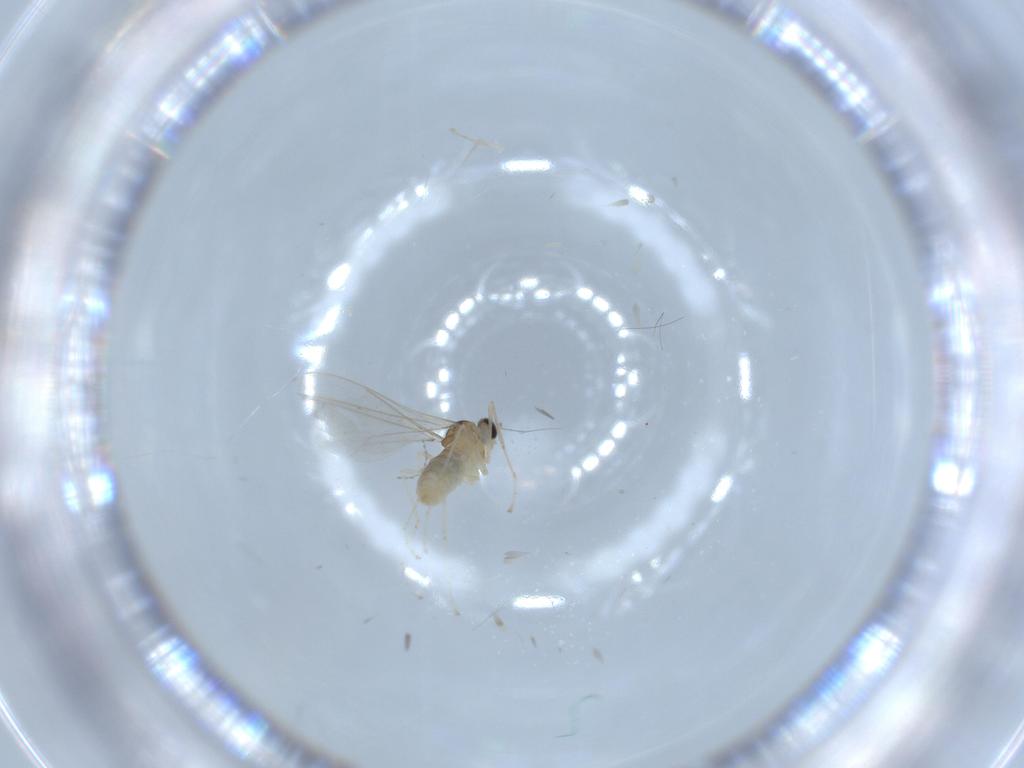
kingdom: Animalia
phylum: Arthropoda
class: Insecta
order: Diptera
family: Cecidomyiidae
